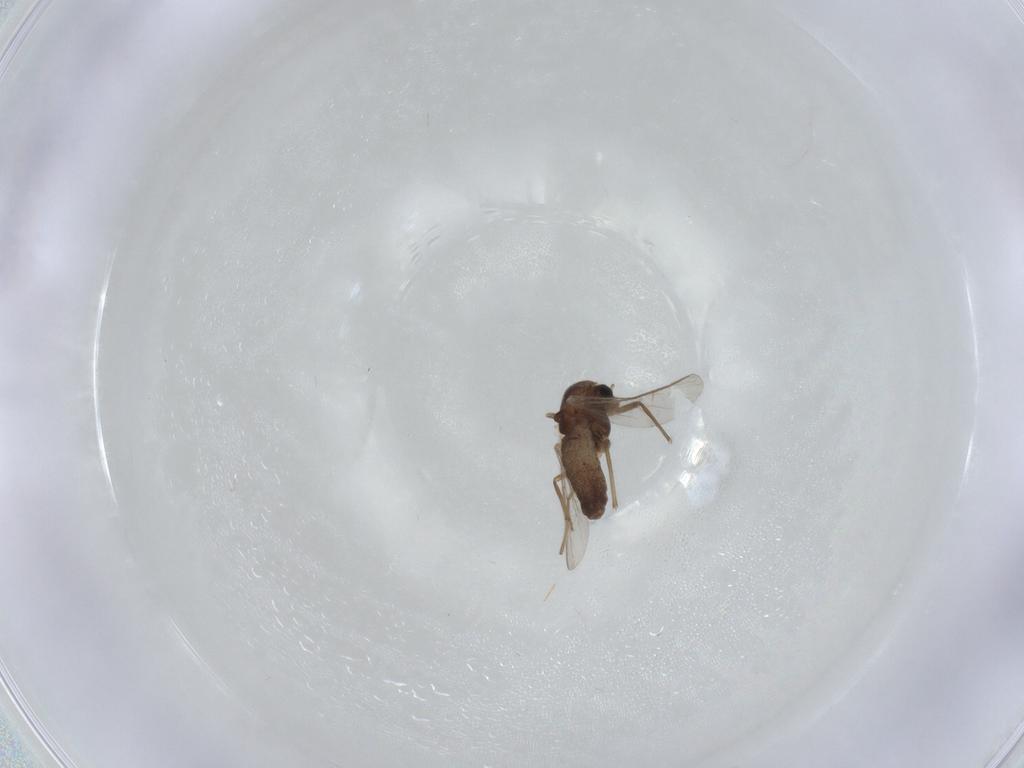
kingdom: Animalia
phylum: Arthropoda
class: Insecta
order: Diptera
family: Chironomidae
